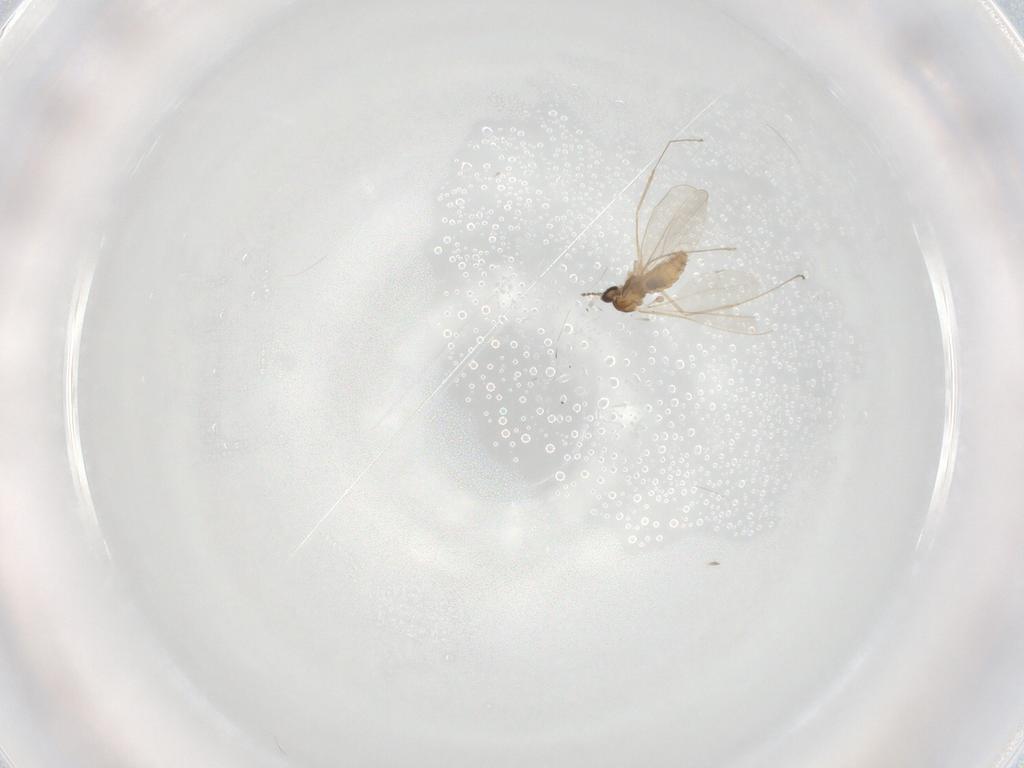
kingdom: Animalia
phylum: Arthropoda
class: Insecta
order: Diptera
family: Cecidomyiidae
